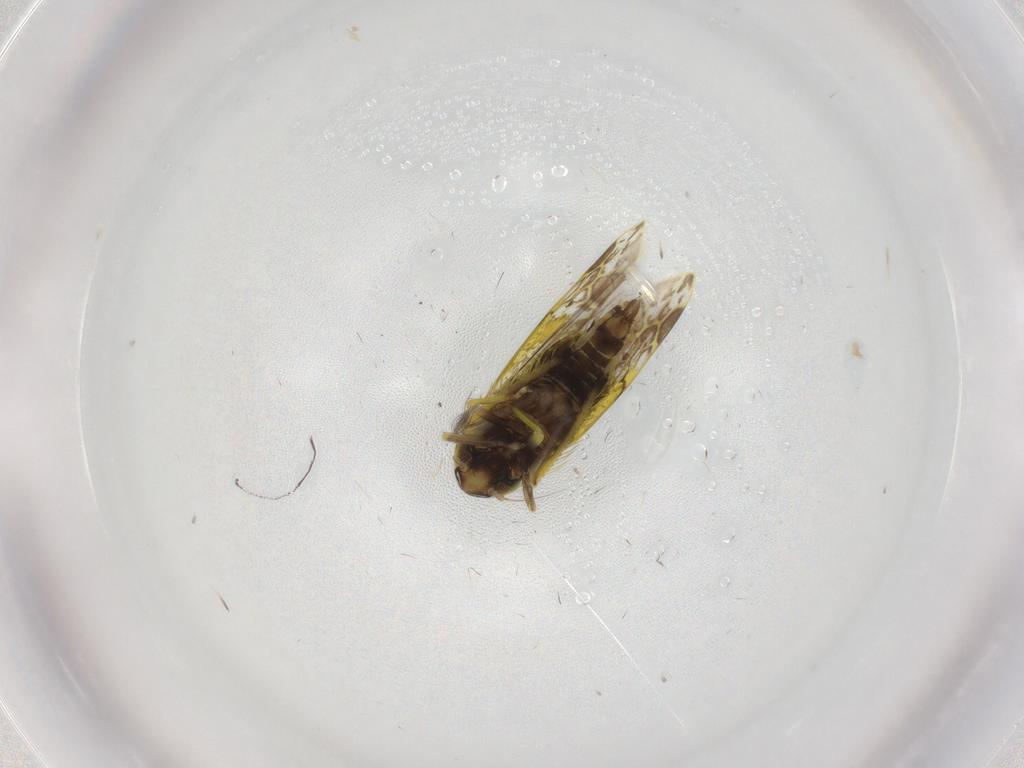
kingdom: Animalia
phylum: Arthropoda
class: Insecta
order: Hemiptera
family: Cicadellidae
